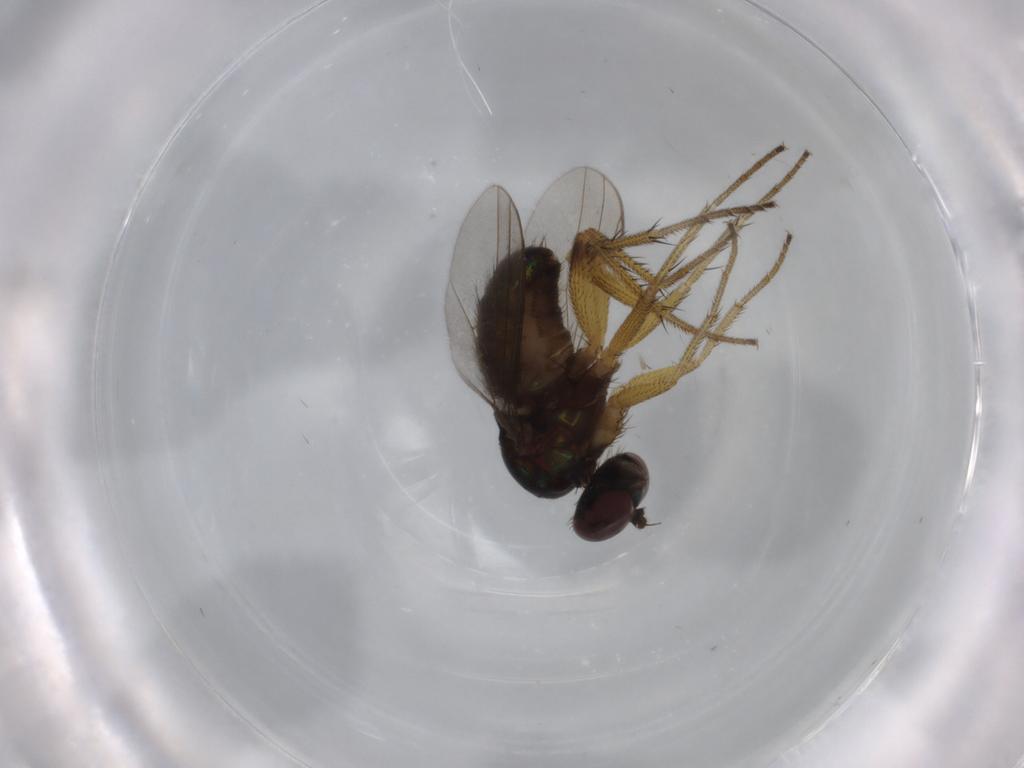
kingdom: Animalia
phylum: Arthropoda
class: Insecta
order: Diptera
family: Dolichopodidae
